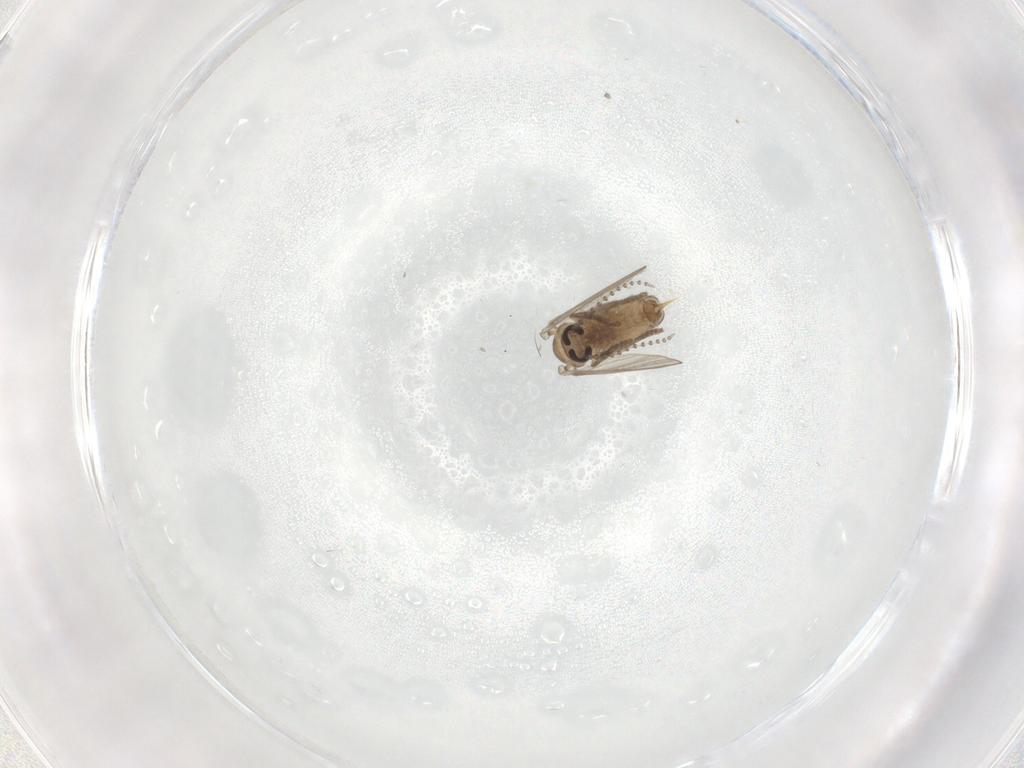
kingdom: Animalia
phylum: Arthropoda
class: Insecta
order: Diptera
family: Psychodidae
